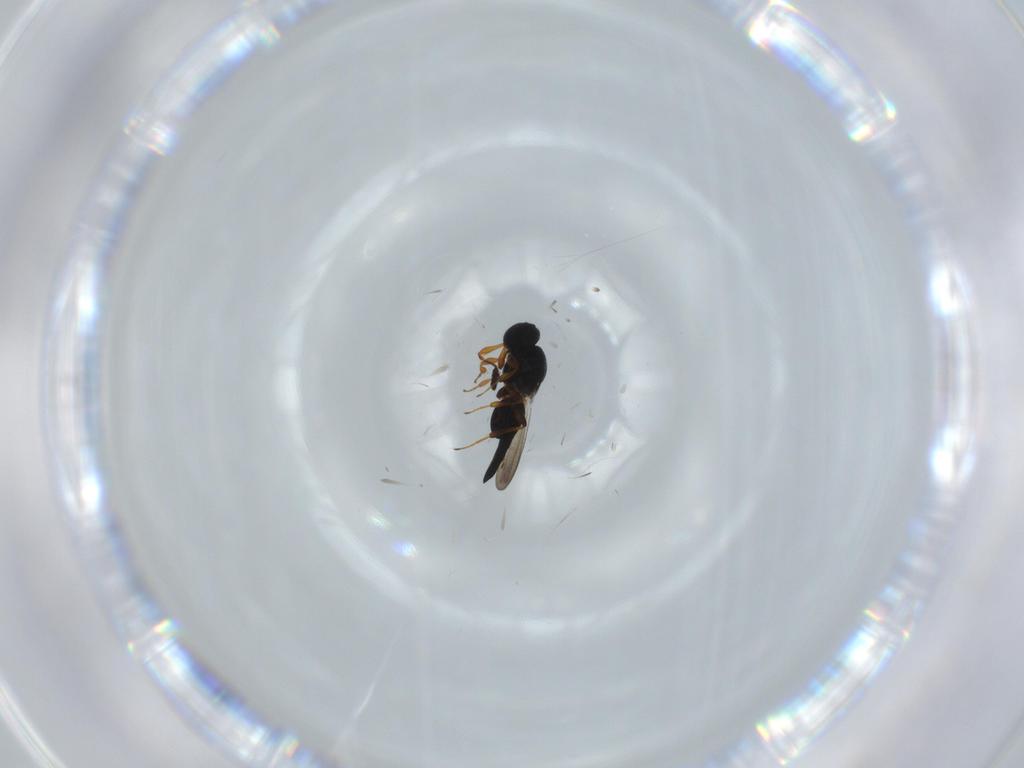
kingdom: Animalia
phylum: Arthropoda
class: Insecta
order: Hymenoptera
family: Platygastridae
